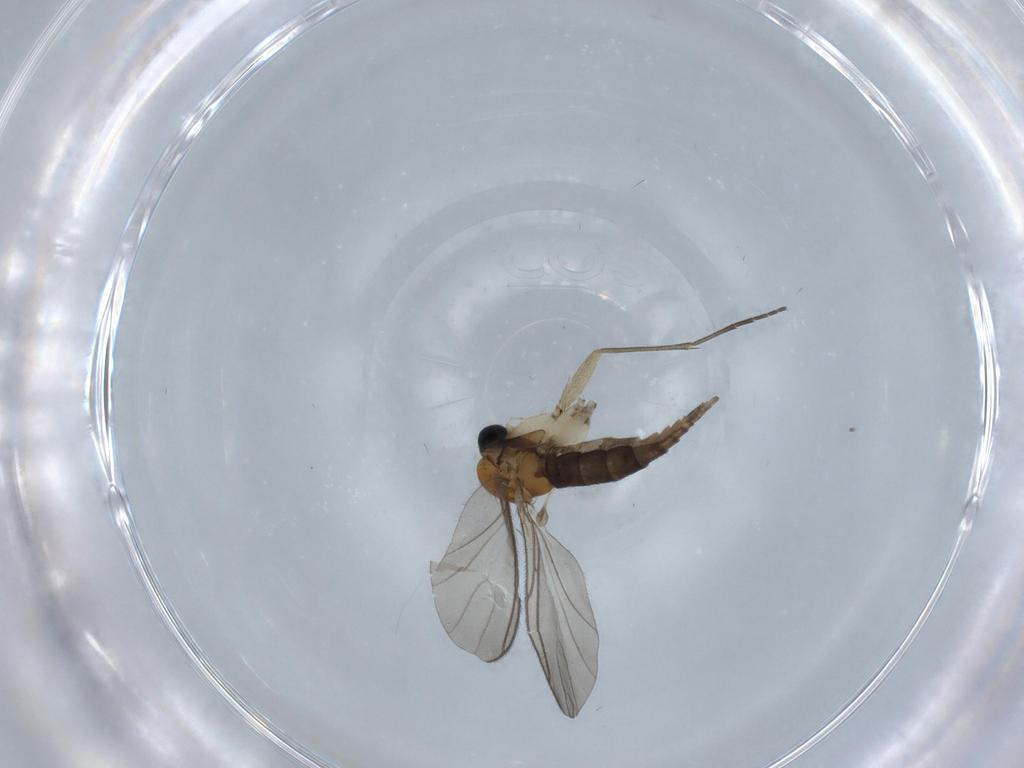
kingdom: Animalia
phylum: Arthropoda
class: Insecta
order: Diptera
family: Sciaridae
